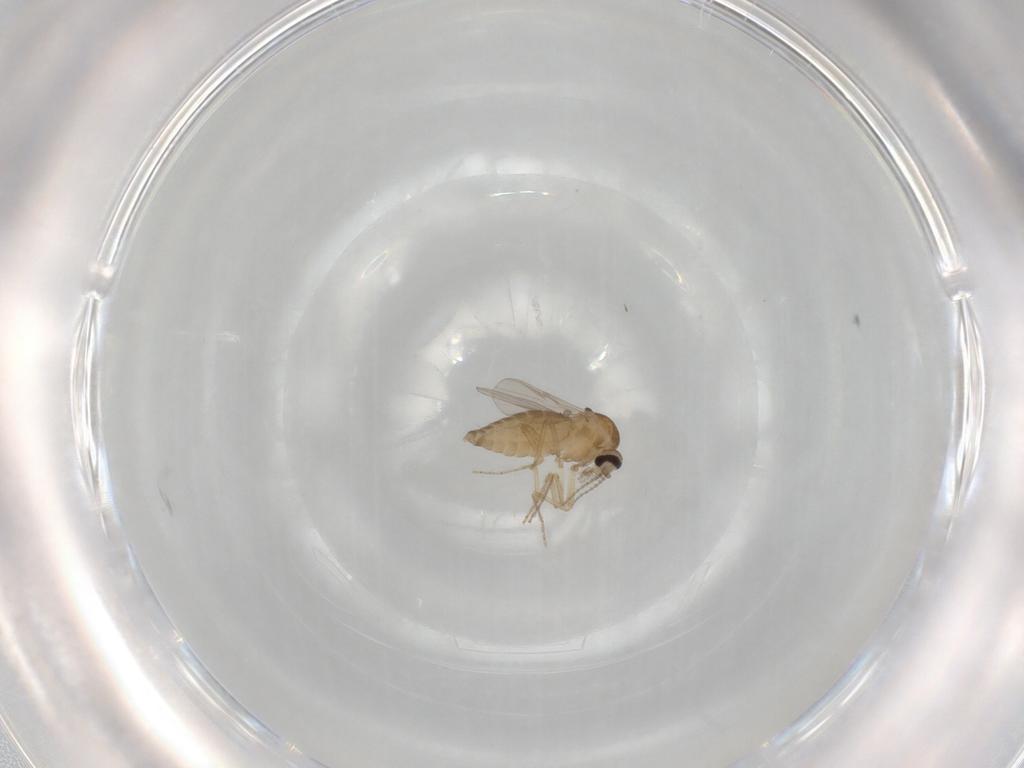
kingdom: Animalia
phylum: Arthropoda
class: Insecta
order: Diptera
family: Ceratopogonidae
